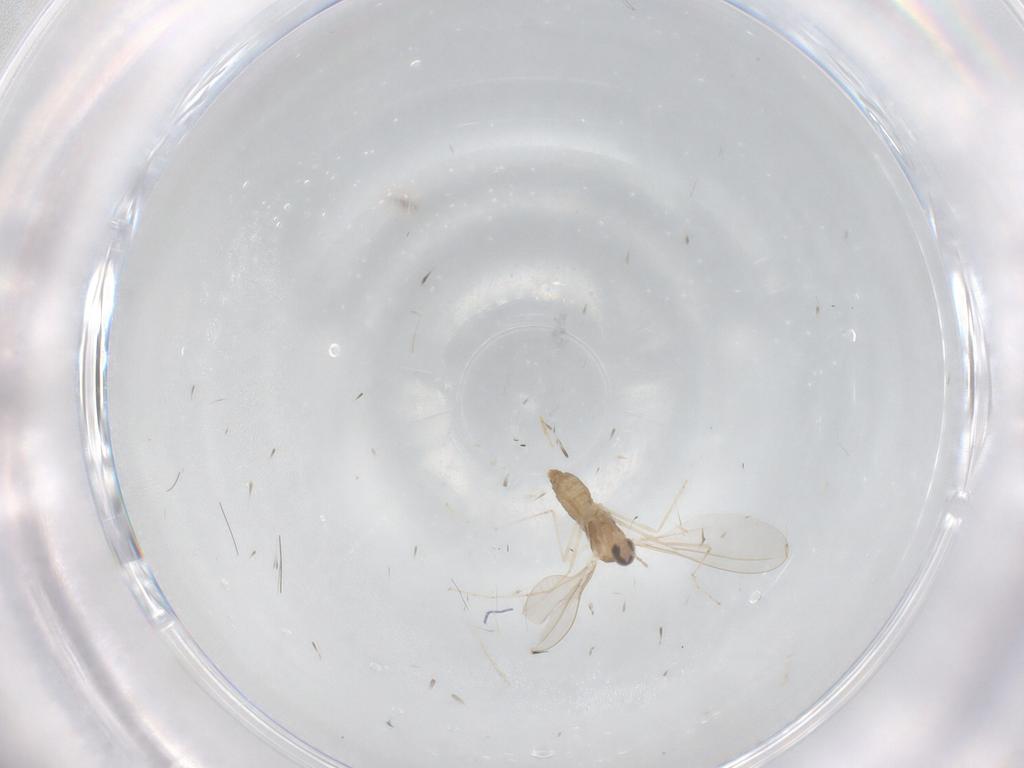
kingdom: Animalia
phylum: Arthropoda
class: Insecta
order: Diptera
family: Cecidomyiidae
